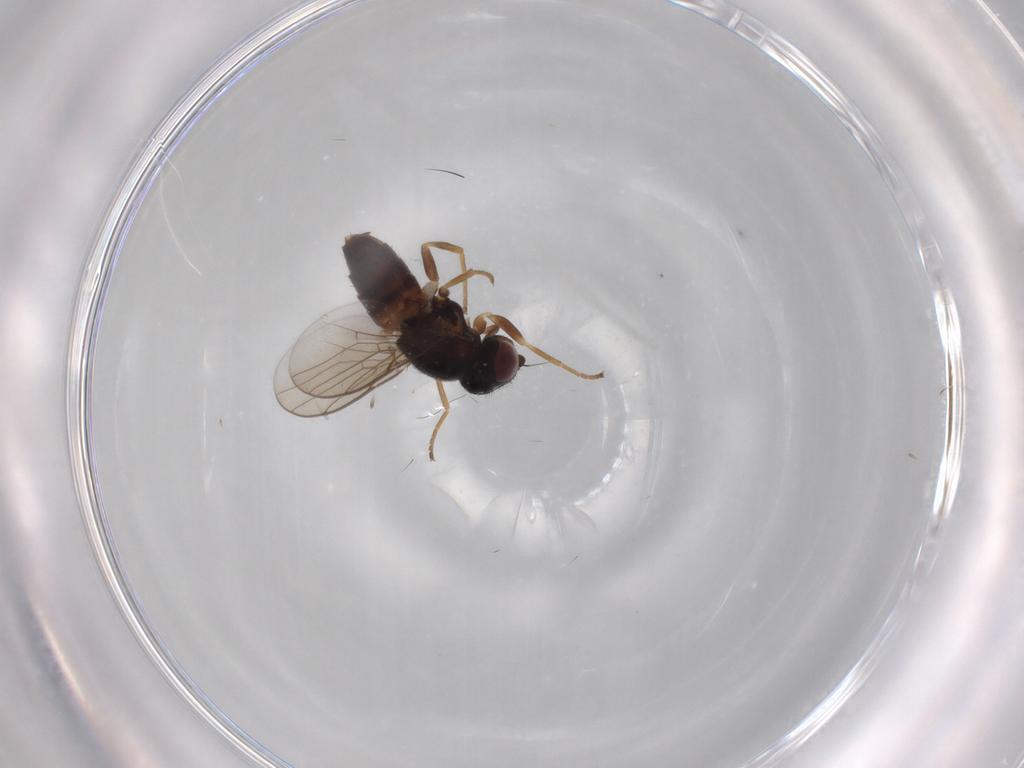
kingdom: Animalia
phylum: Arthropoda
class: Insecta
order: Diptera
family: Chloropidae
